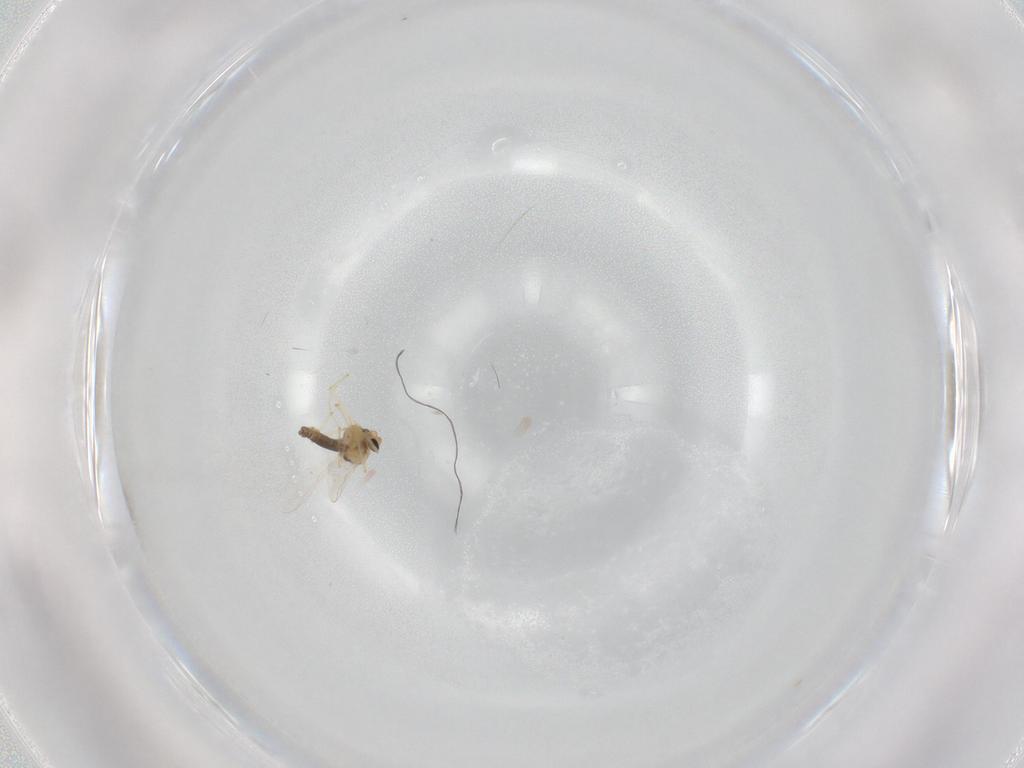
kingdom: Animalia
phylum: Arthropoda
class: Insecta
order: Diptera
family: Chironomidae
